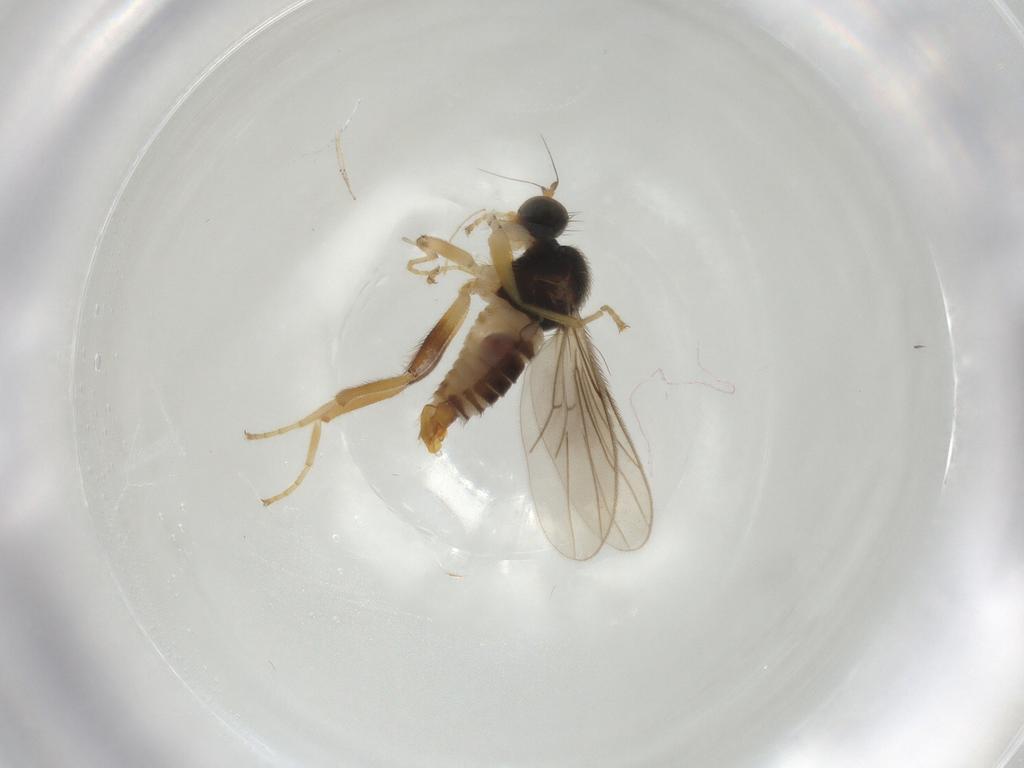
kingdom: Animalia
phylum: Arthropoda
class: Insecta
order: Diptera
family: Hybotidae
